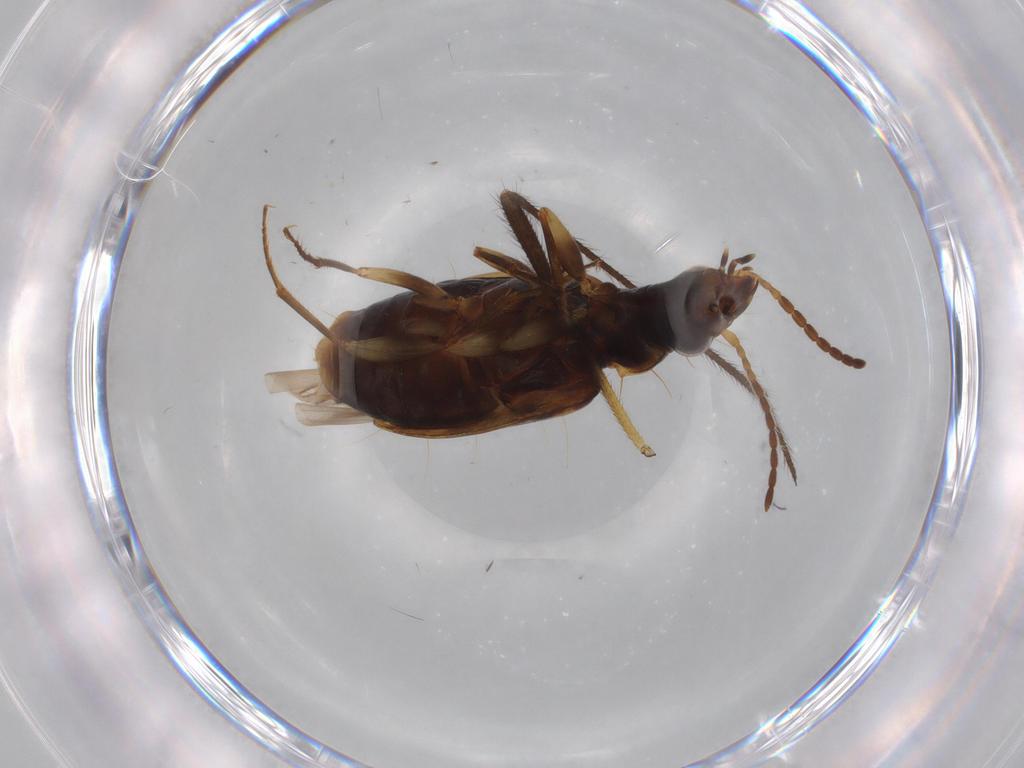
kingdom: Animalia
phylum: Arthropoda
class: Insecta
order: Coleoptera
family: Carabidae
